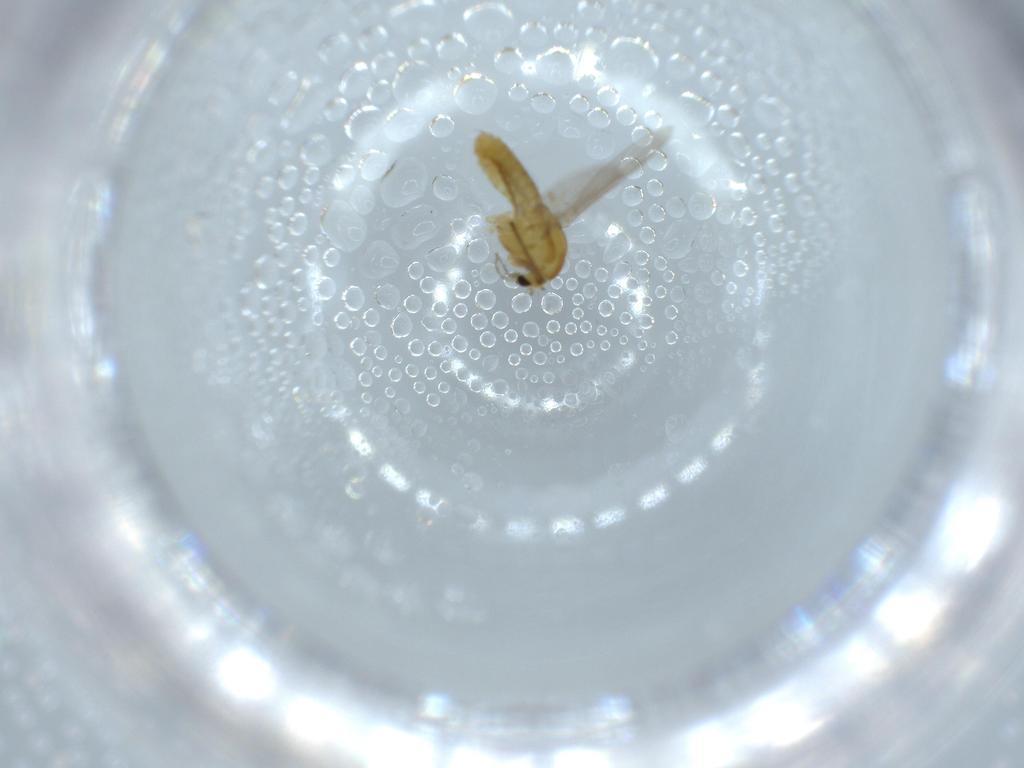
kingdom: Animalia
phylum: Arthropoda
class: Insecta
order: Diptera
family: Chironomidae
